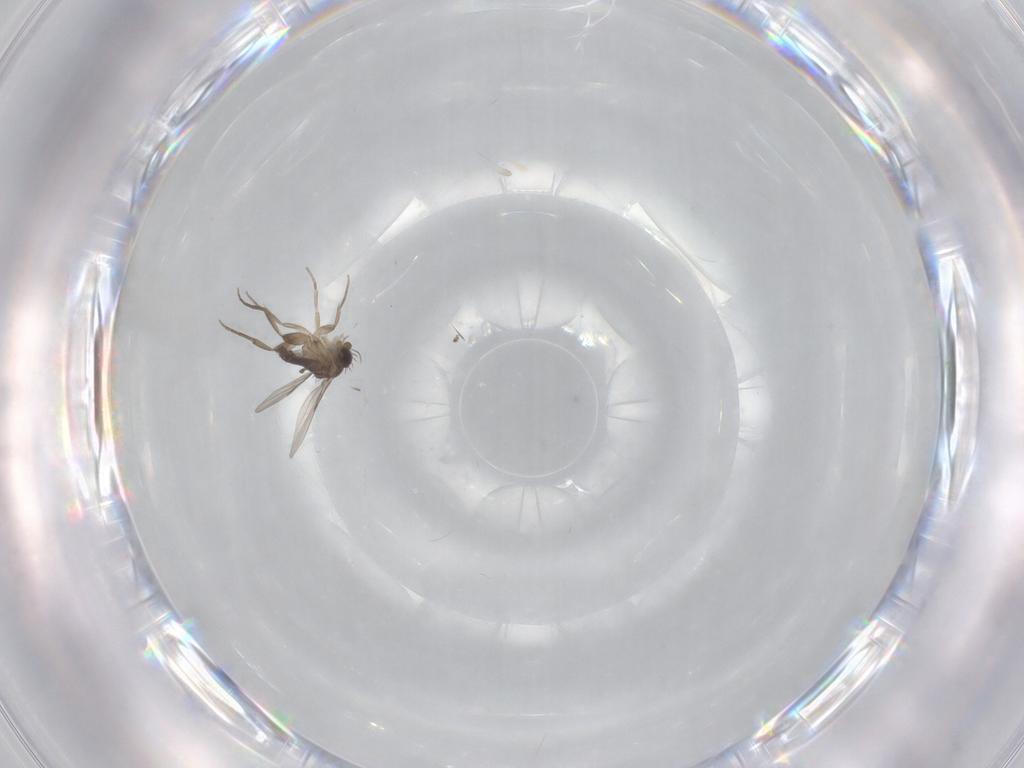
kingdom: Animalia
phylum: Arthropoda
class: Insecta
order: Diptera
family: Phoridae
